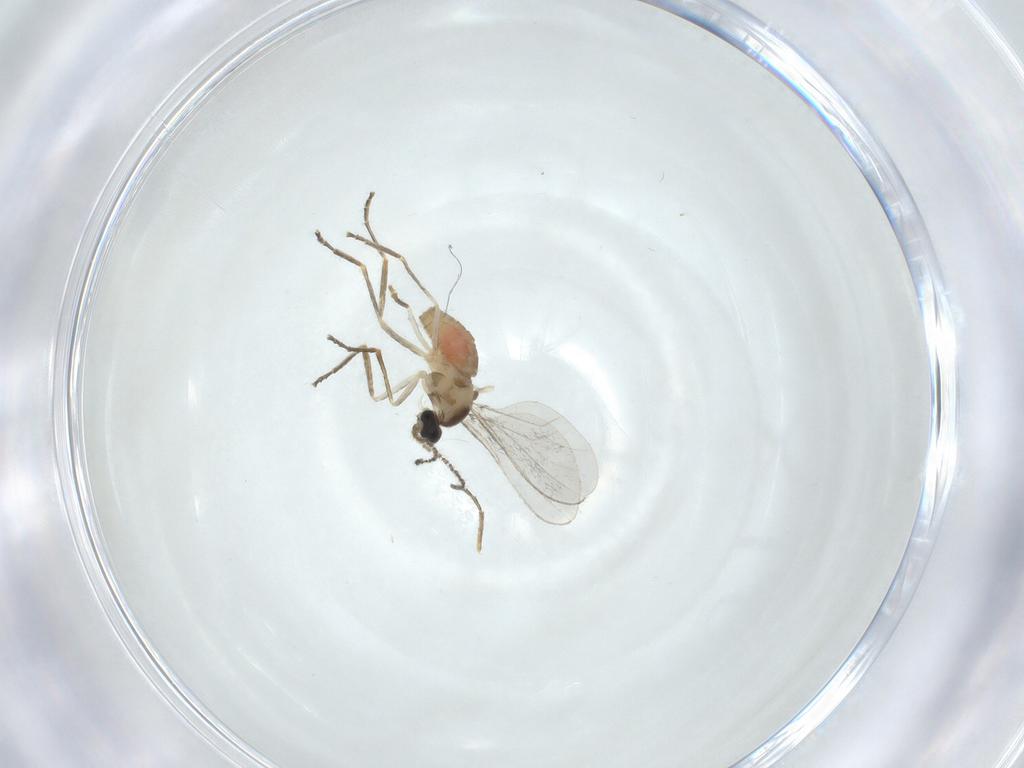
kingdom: Animalia
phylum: Arthropoda
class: Insecta
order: Diptera
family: Cecidomyiidae
